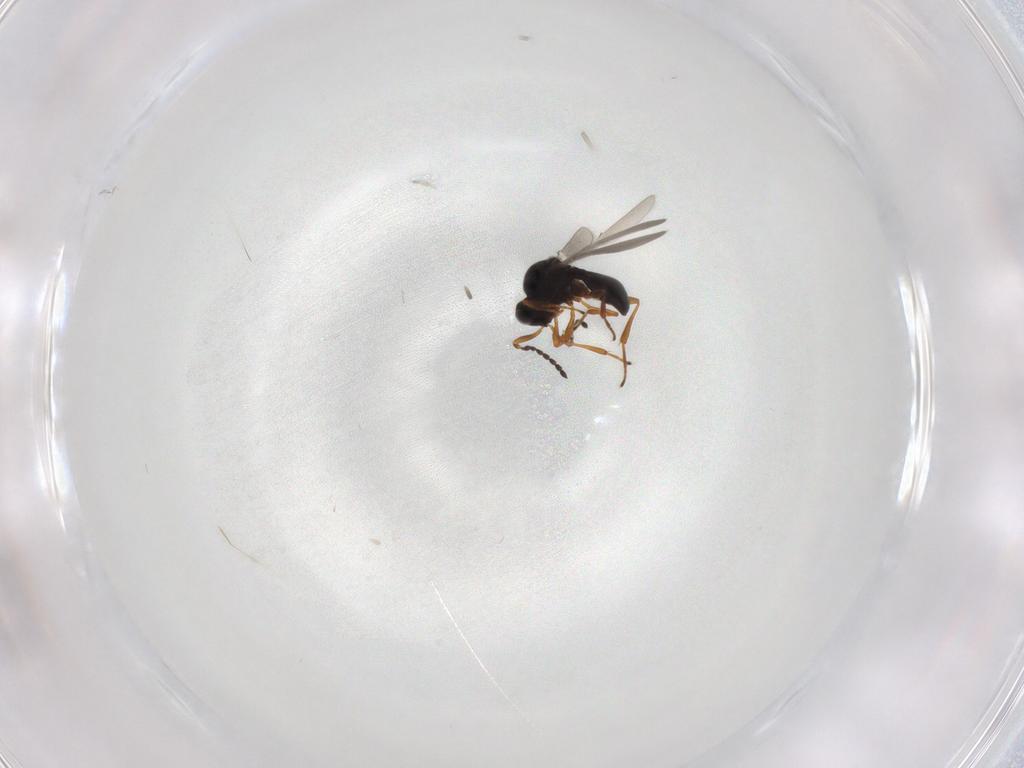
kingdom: Animalia
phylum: Arthropoda
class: Insecta
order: Hymenoptera
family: Platygastridae
